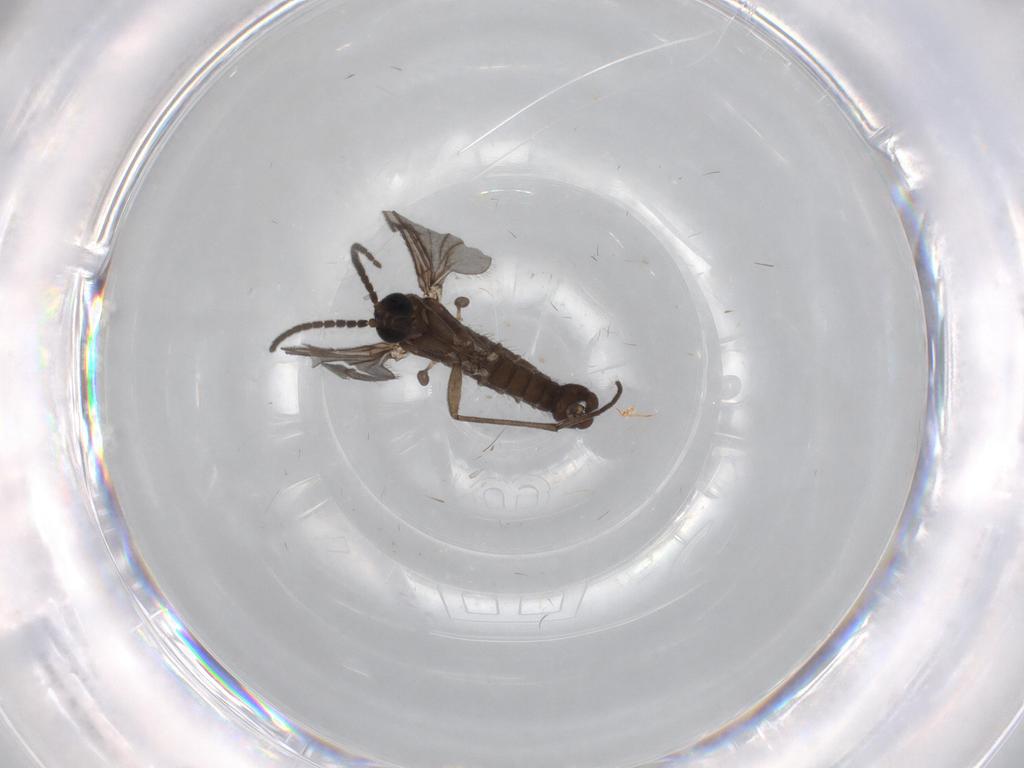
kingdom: Animalia
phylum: Arthropoda
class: Insecta
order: Diptera
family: Sciaridae
